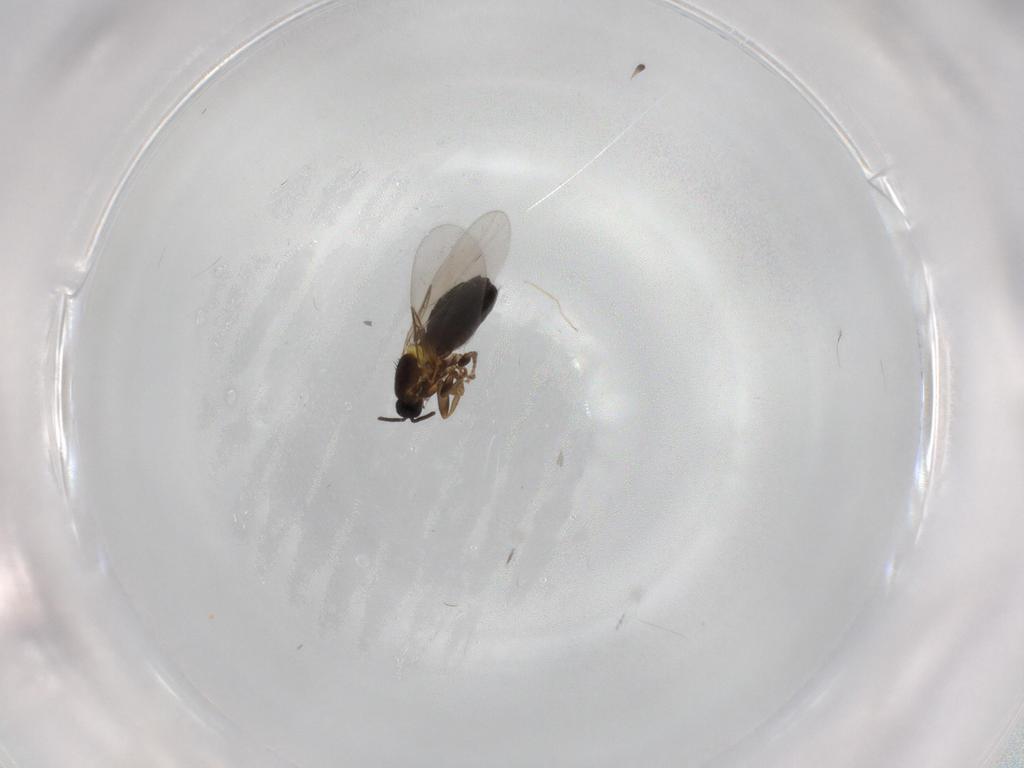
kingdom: Animalia
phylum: Arthropoda
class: Insecta
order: Diptera
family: Scatopsidae
